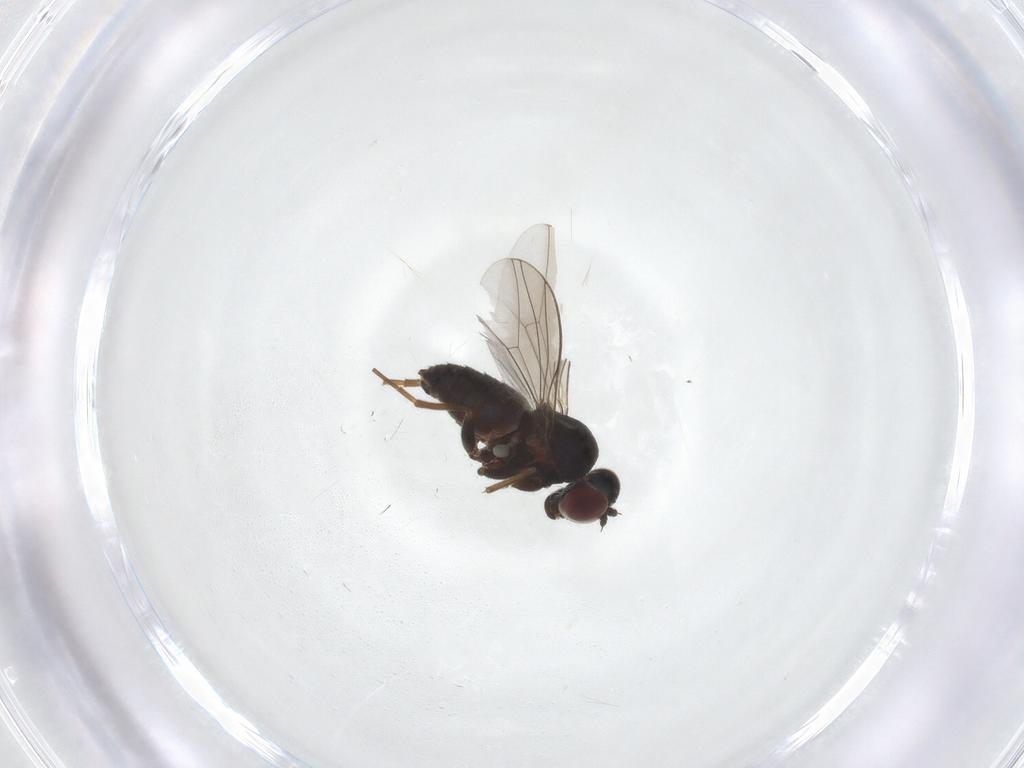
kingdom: Animalia
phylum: Arthropoda
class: Insecta
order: Diptera
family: Dolichopodidae
